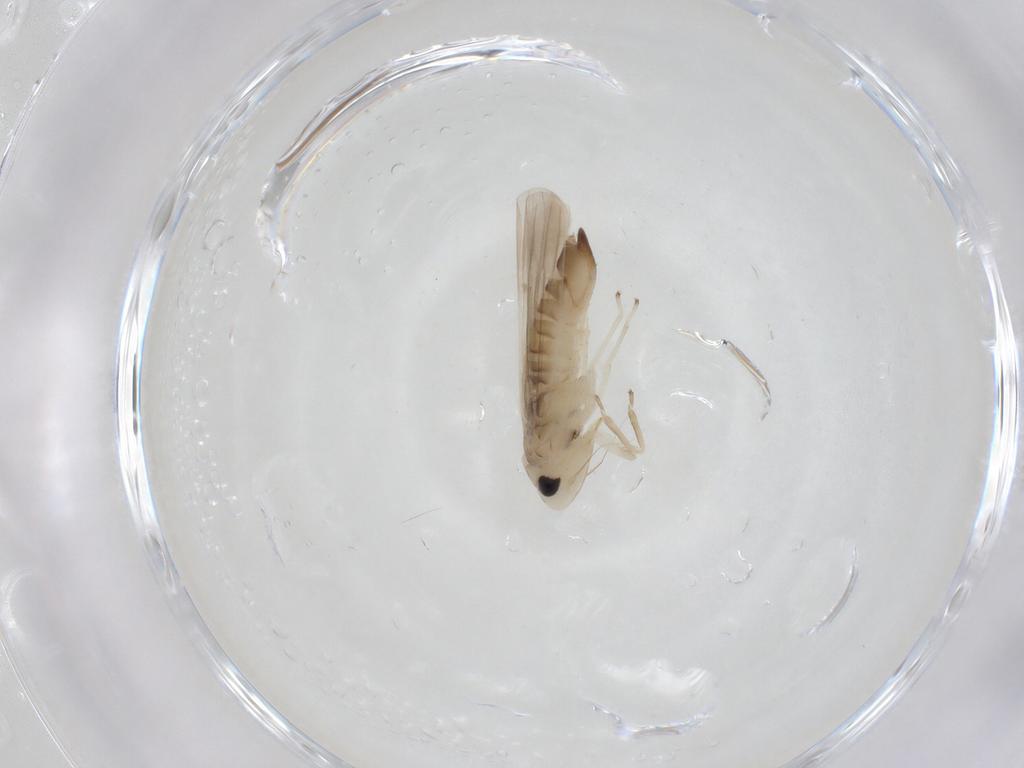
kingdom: Animalia
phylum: Arthropoda
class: Insecta
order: Hemiptera
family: Cicadellidae
